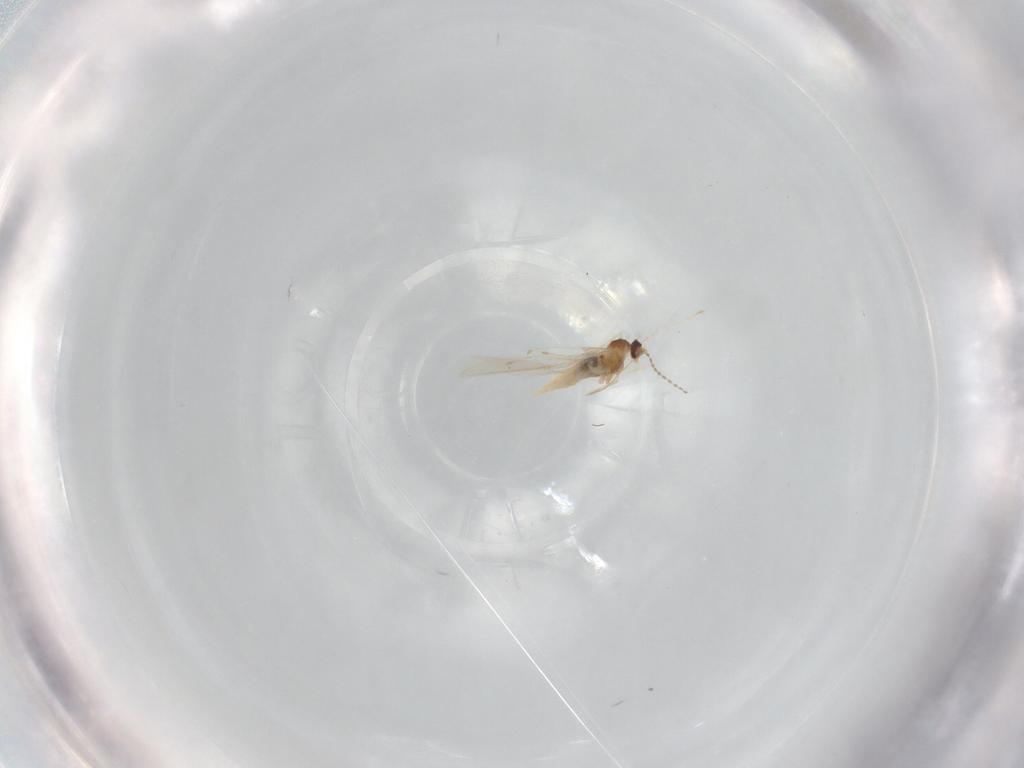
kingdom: Animalia
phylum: Arthropoda
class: Insecta
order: Diptera
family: Cecidomyiidae
